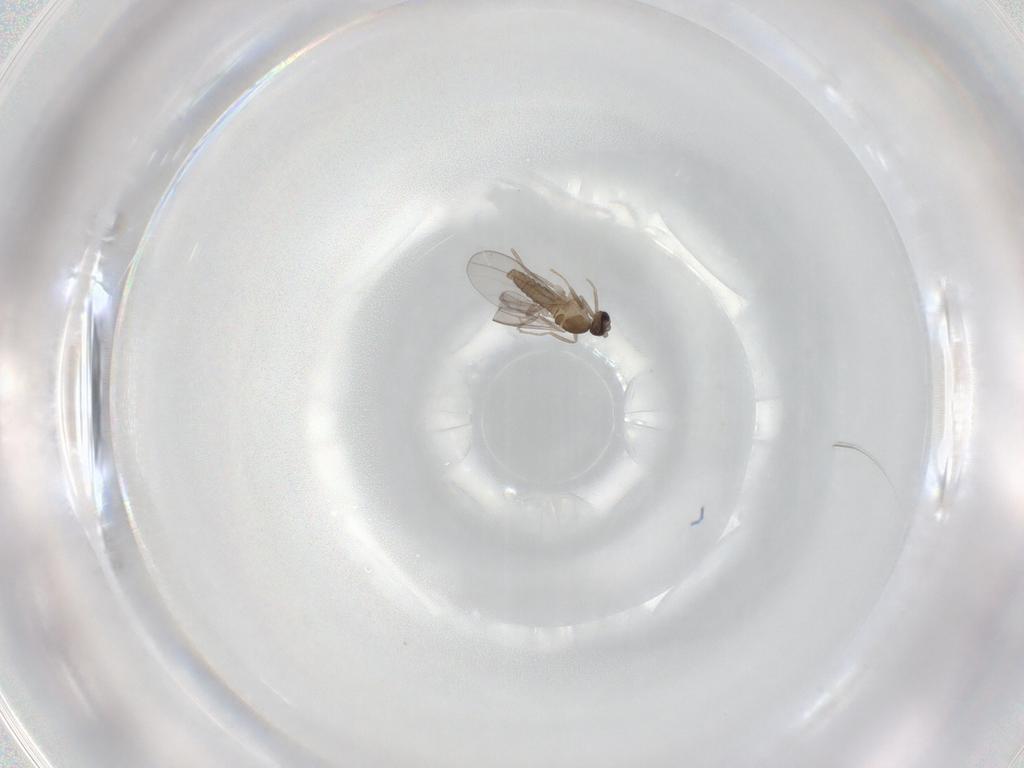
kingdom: Animalia
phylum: Arthropoda
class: Insecta
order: Diptera
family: Cecidomyiidae
